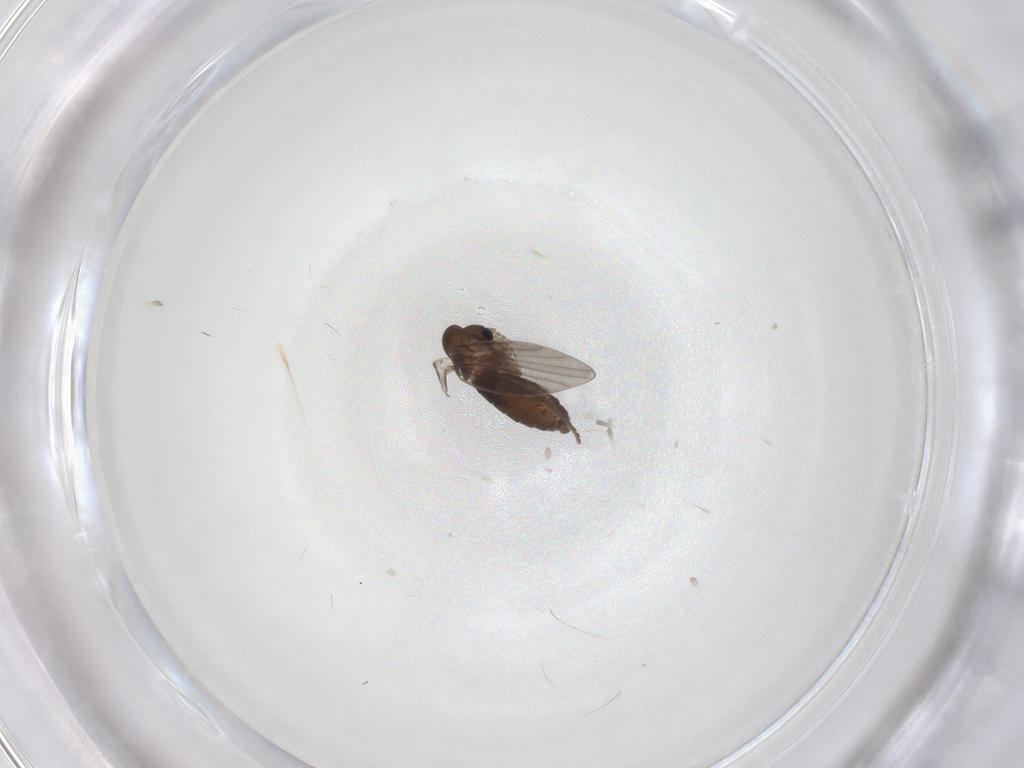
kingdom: Animalia
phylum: Arthropoda
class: Insecta
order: Diptera
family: Psychodidae
